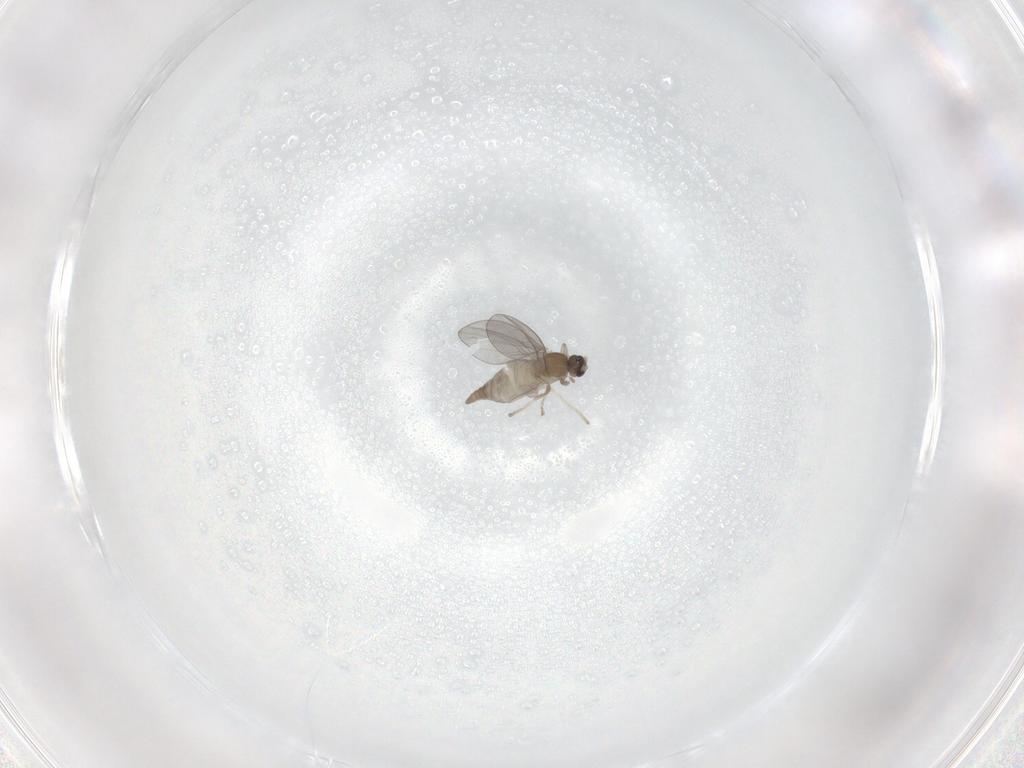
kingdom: Animalia
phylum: Arthropoda
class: Insecta
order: Diptera
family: Cecidomyiidae
